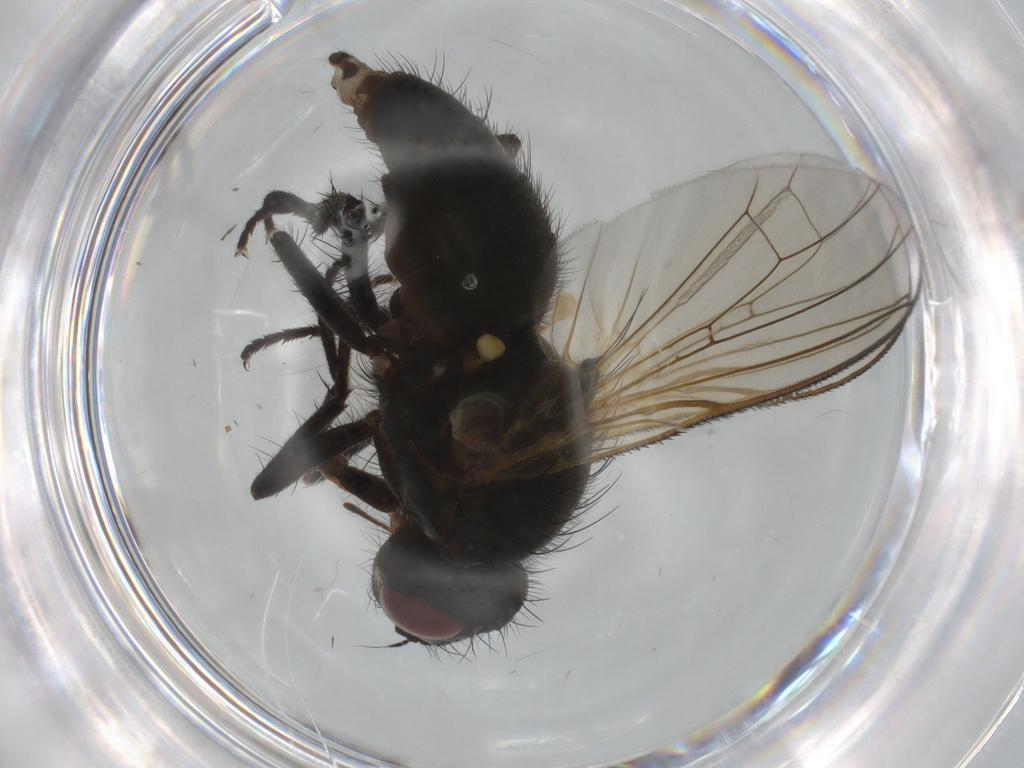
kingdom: Animalia
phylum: Arthropoda
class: Insecta
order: Diptera
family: Anthomyiidae
